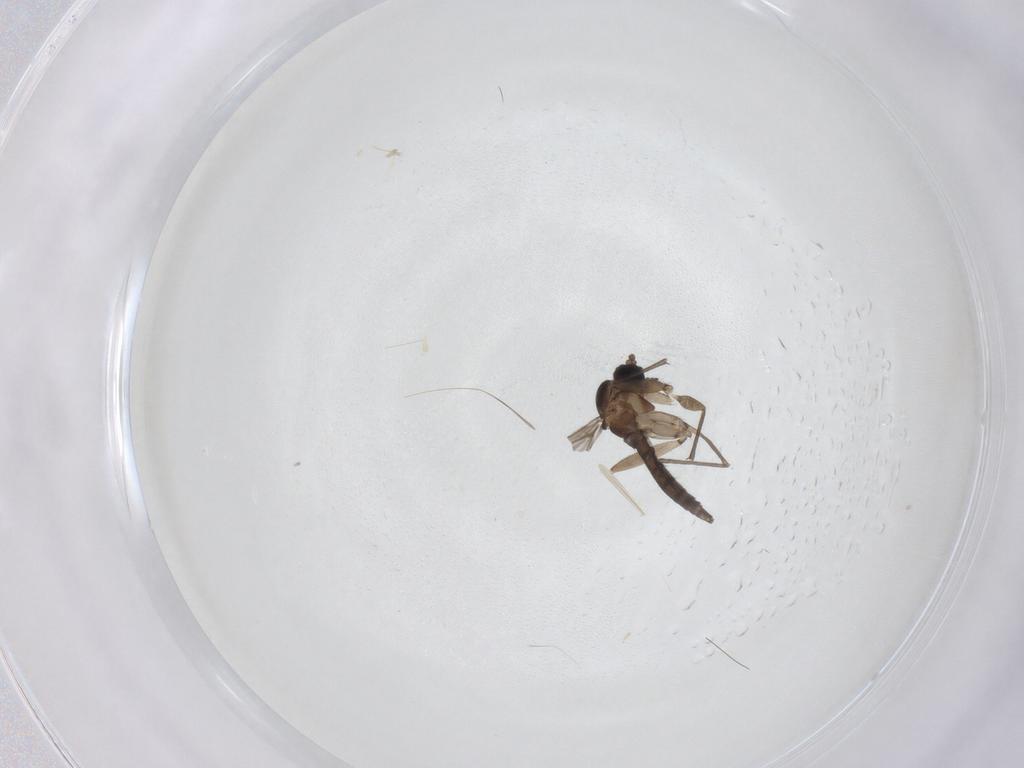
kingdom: Animalia
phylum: Arthropoda
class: Insecta
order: Diptera
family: Sciaridae
